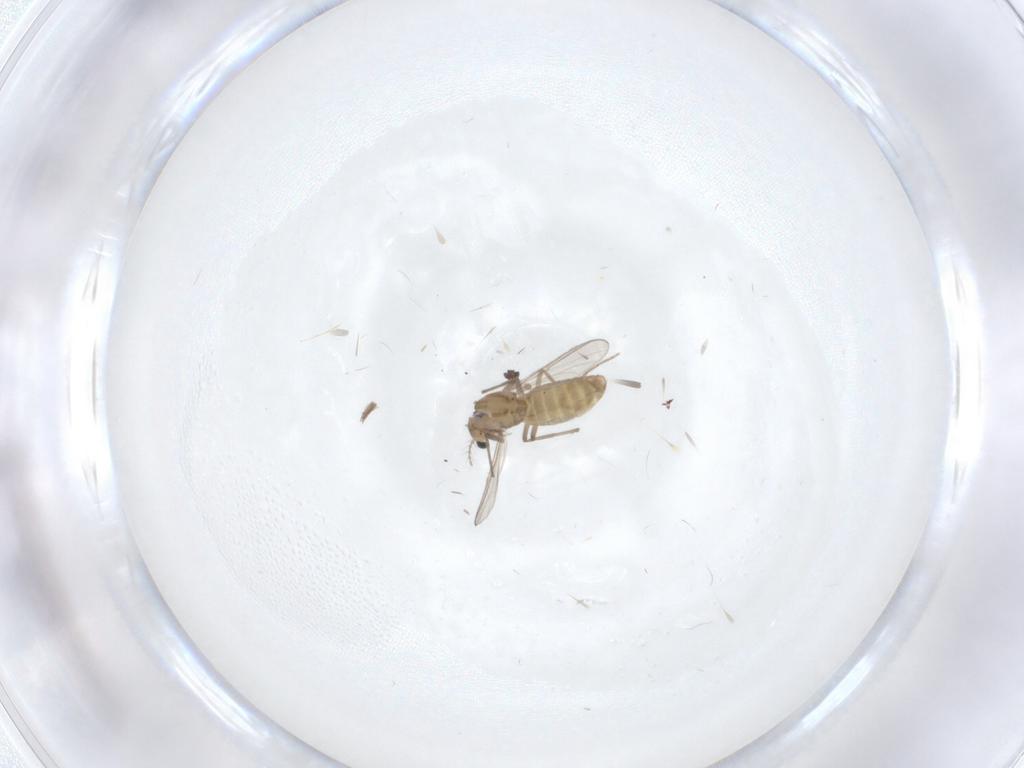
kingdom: Animalia
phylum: Arthropoda
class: Insecta
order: Diptera
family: Chironomidae
